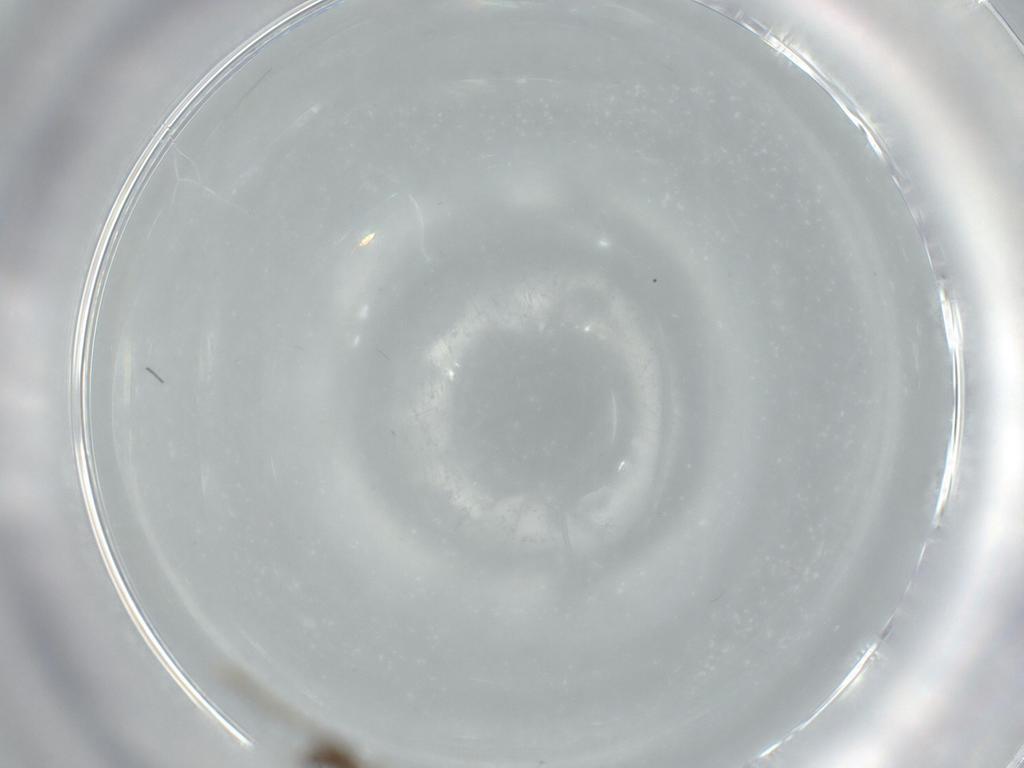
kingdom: Animalia
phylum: Arthropoda
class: Insecta
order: Diptera
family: Cecidomyiidae
